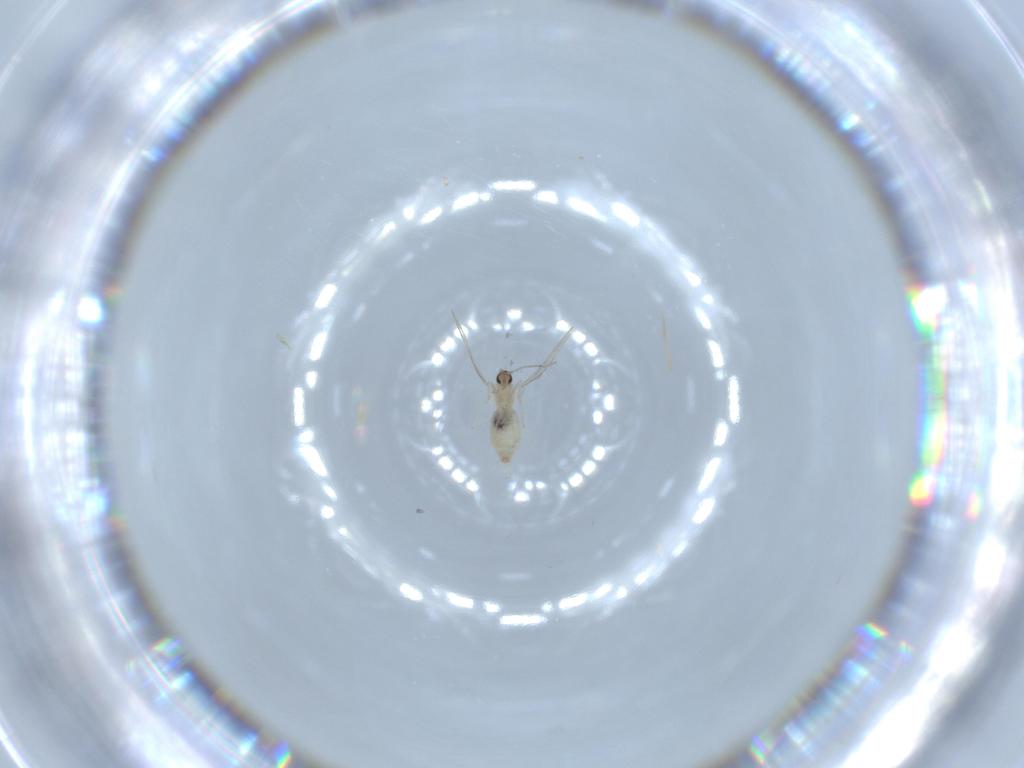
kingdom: Animalia
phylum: Arthropoda
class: Insecta
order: Diptera
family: Cecidomyiidae
